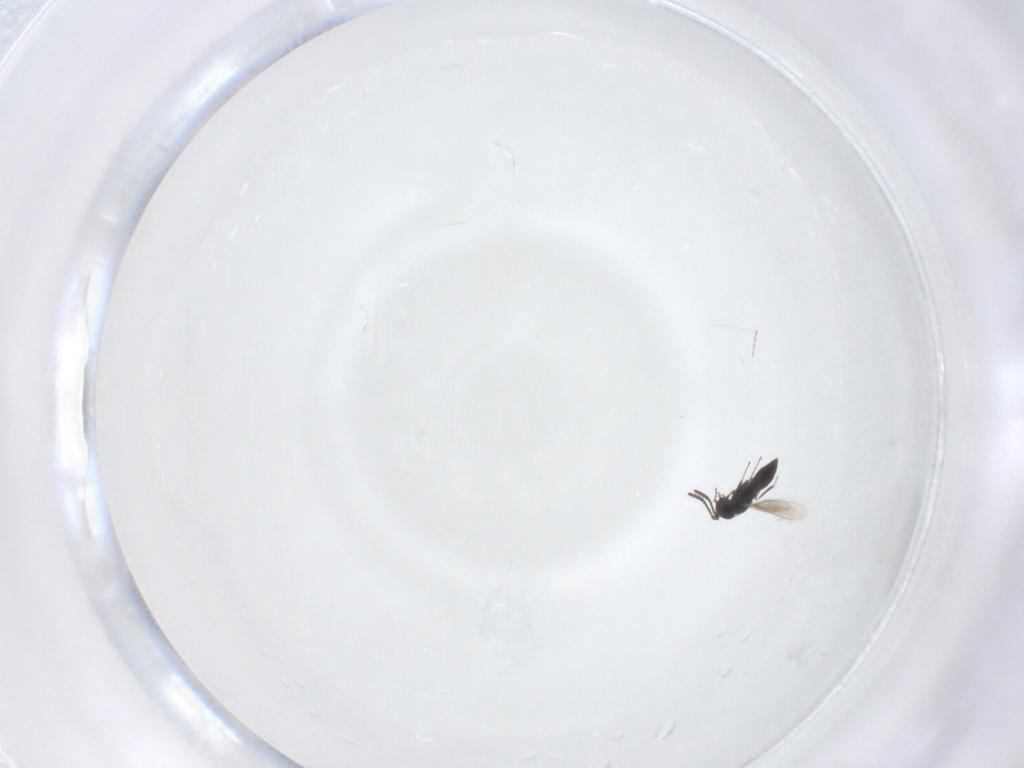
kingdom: Animalia
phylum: Arthropoda
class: Insecta
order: Hymenoptera
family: Scelionidae
